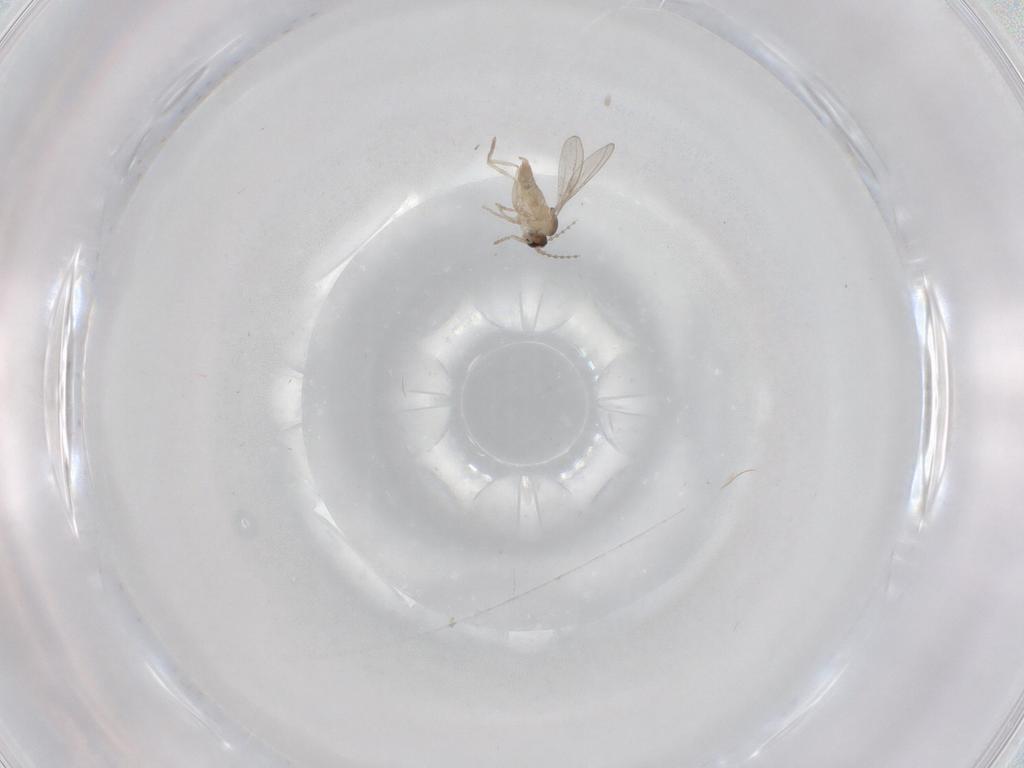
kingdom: Animalia
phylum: Arthropoda
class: Insecta
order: Diptera
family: Cecidomyiidae
